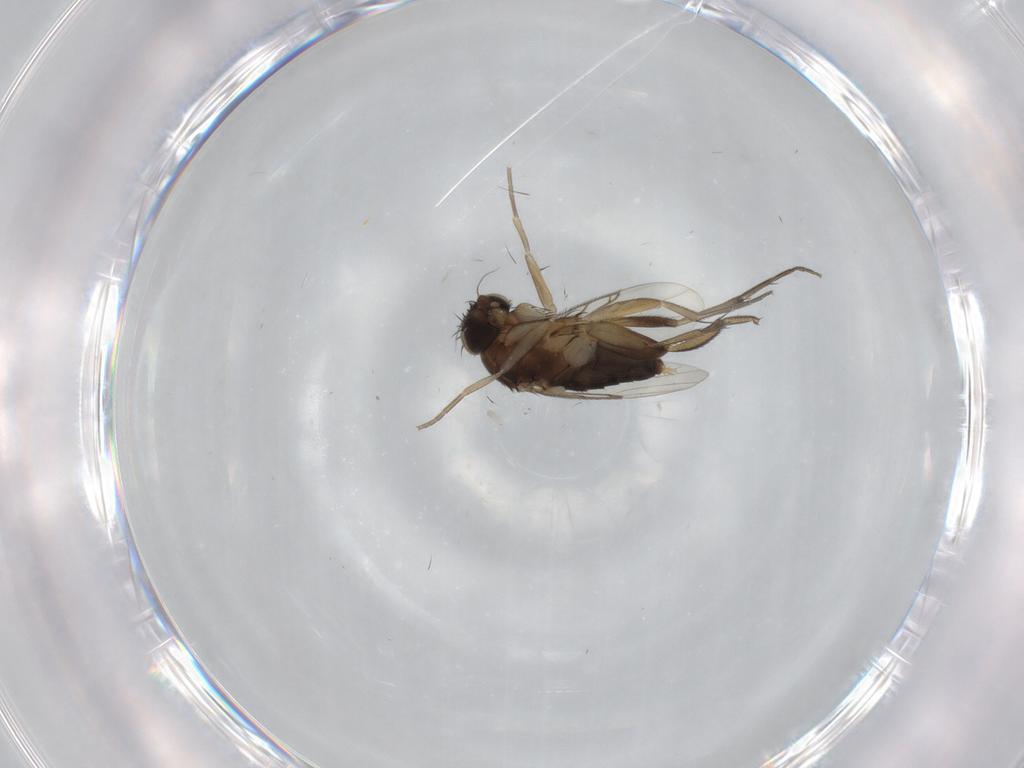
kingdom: Animalia
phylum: Arthropoda
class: Insecta
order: Diptera
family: Phoridae
